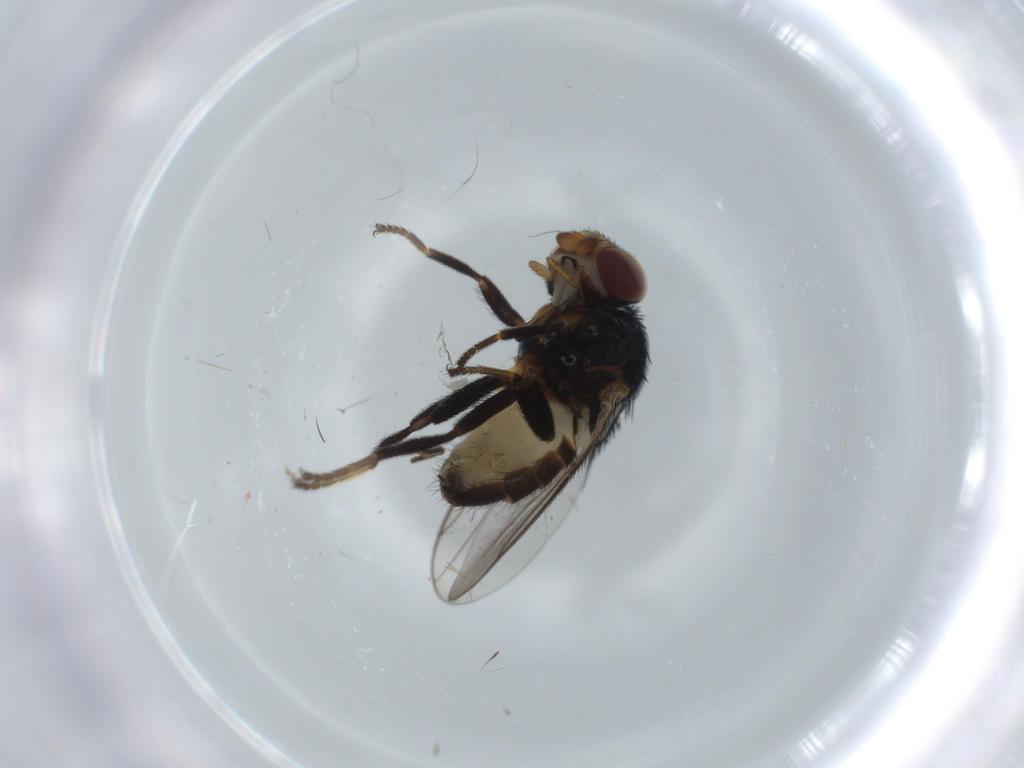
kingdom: Animalia
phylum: Arthropoda
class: Insecta
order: Diptera
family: Chloropidae
